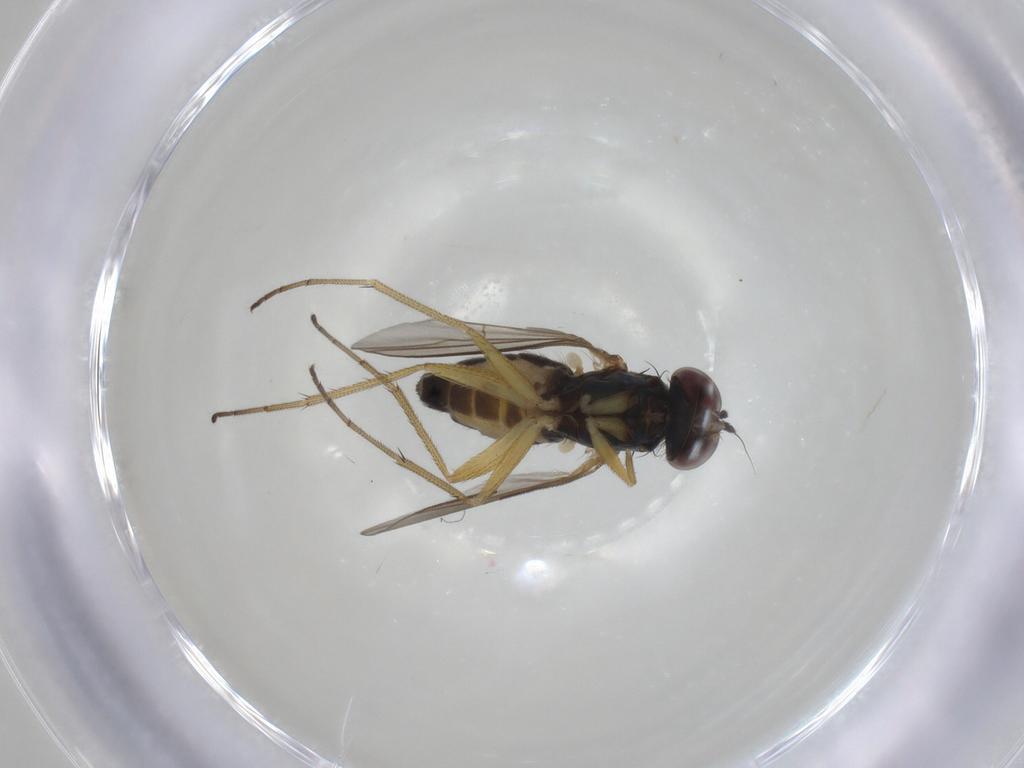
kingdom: Animalia
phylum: Arthropoda
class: Insecta
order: Diptera
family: Dolichopodidae
